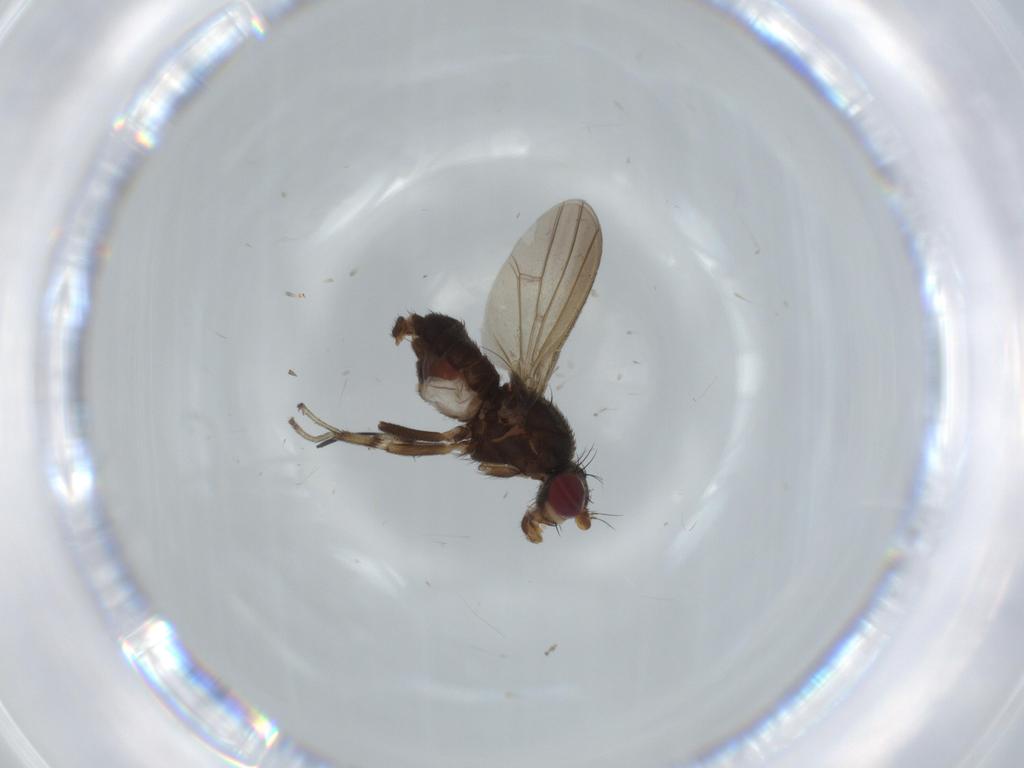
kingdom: Animalia
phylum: Arthropoda
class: Insecta
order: Diptera
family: Heleomyzidae
